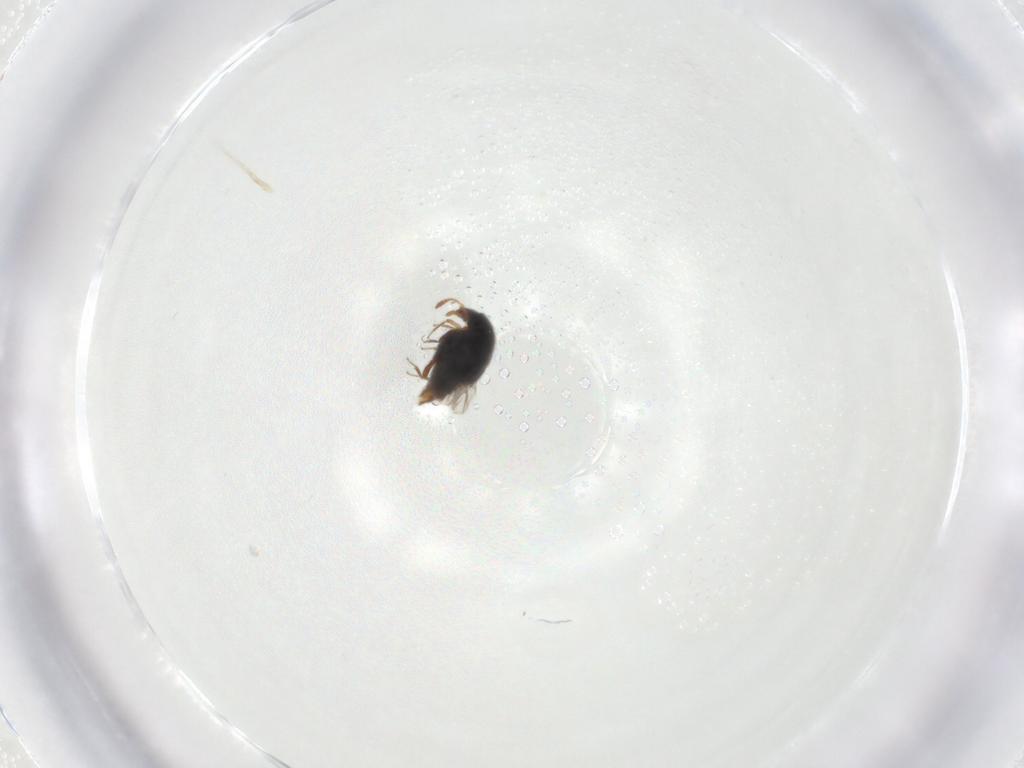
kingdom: Animalia
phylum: Arthropoda
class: Insecta
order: Coleoptera
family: Staphylinidae
